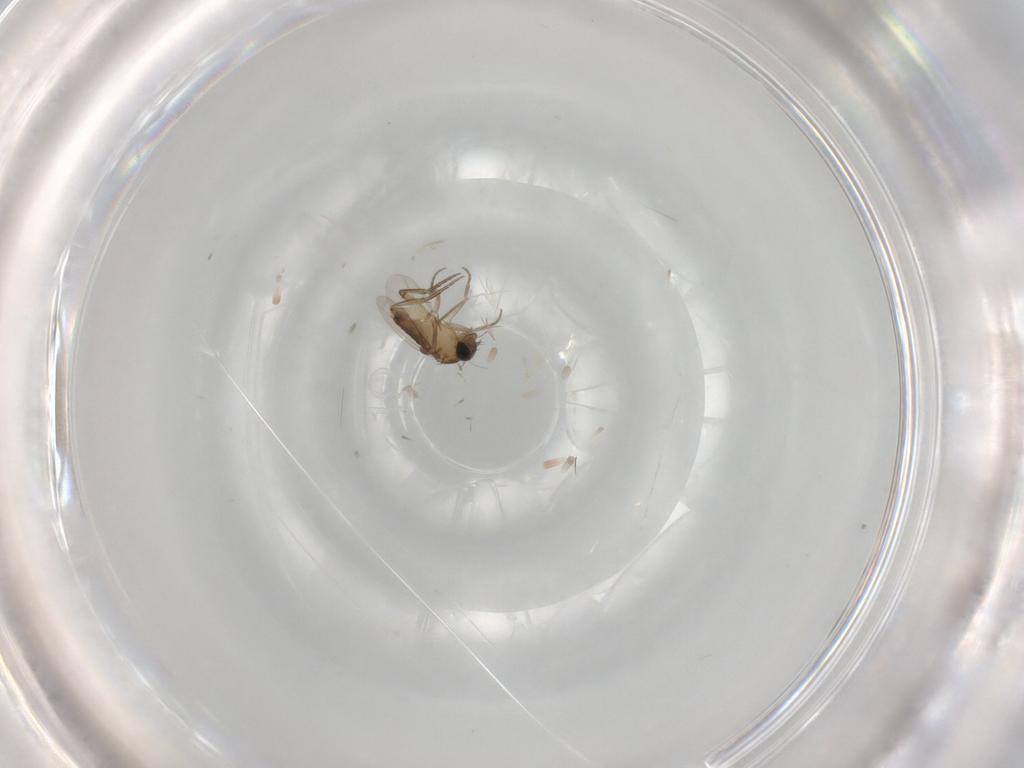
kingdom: Animalia
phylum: Arthropoda
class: Insecta
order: Diptera
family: Phoridae
